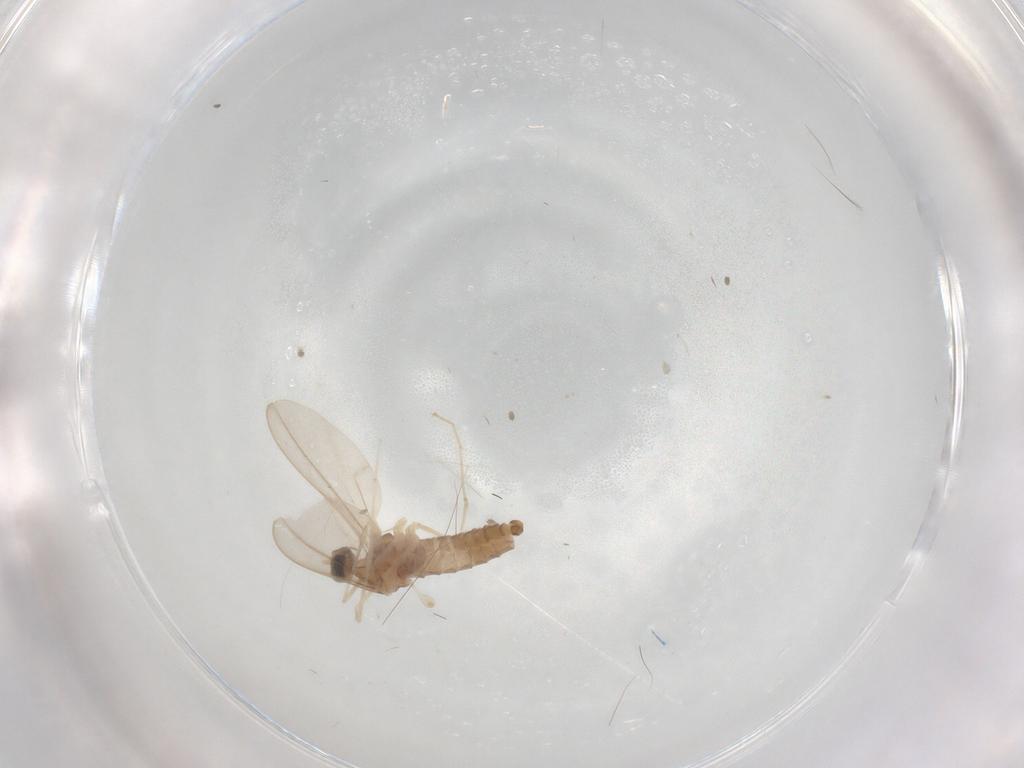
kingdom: Animalia
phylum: Arthropoda
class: Insecta
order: Diptera
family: Cecidomyiidae
